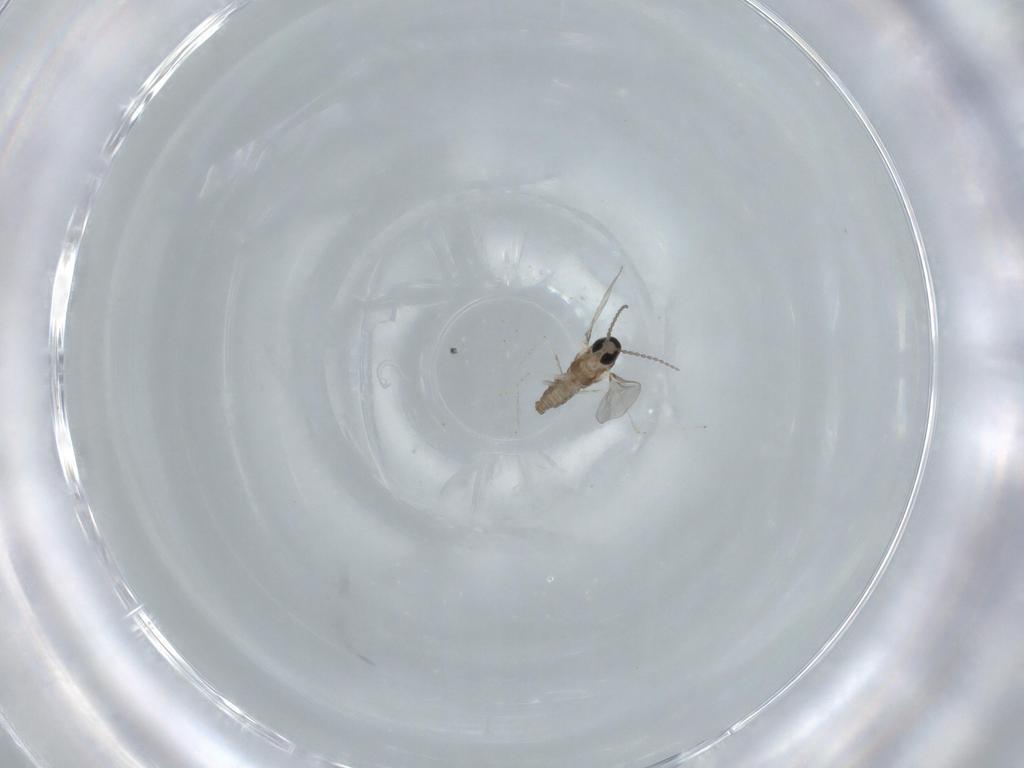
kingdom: Animalia
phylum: Arthropoda
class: Insecta
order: Diptera
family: Cecidomyiidae
